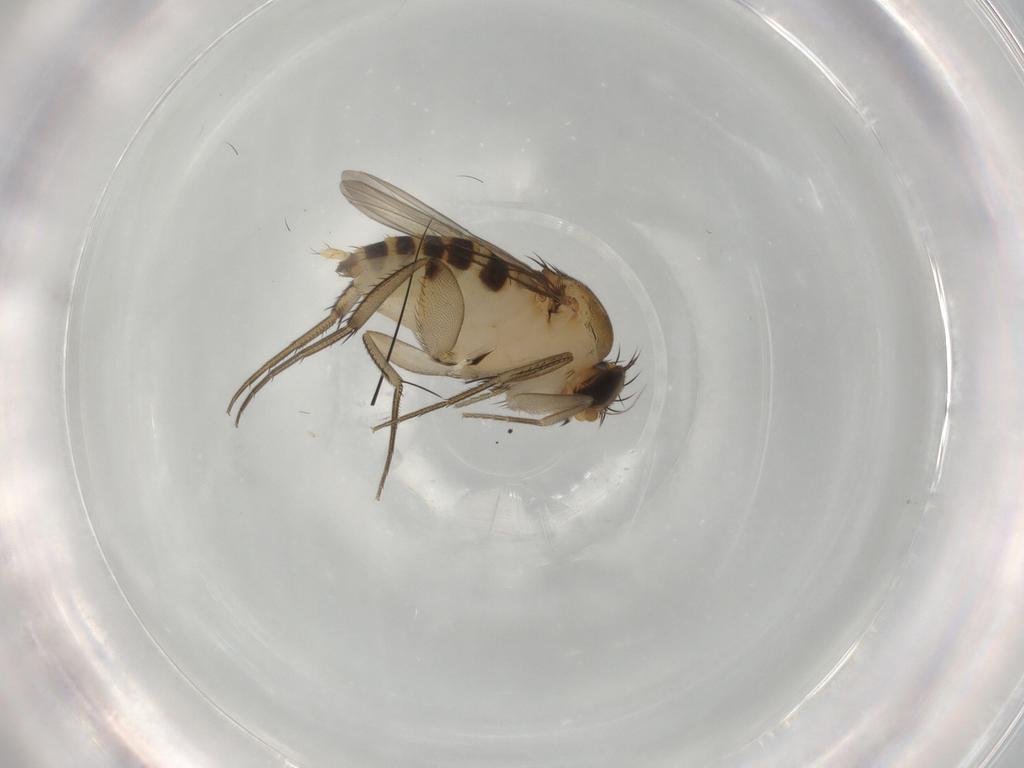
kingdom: Animalia
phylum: Arthropoda
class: Insecta
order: Diptera
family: Phoridae
